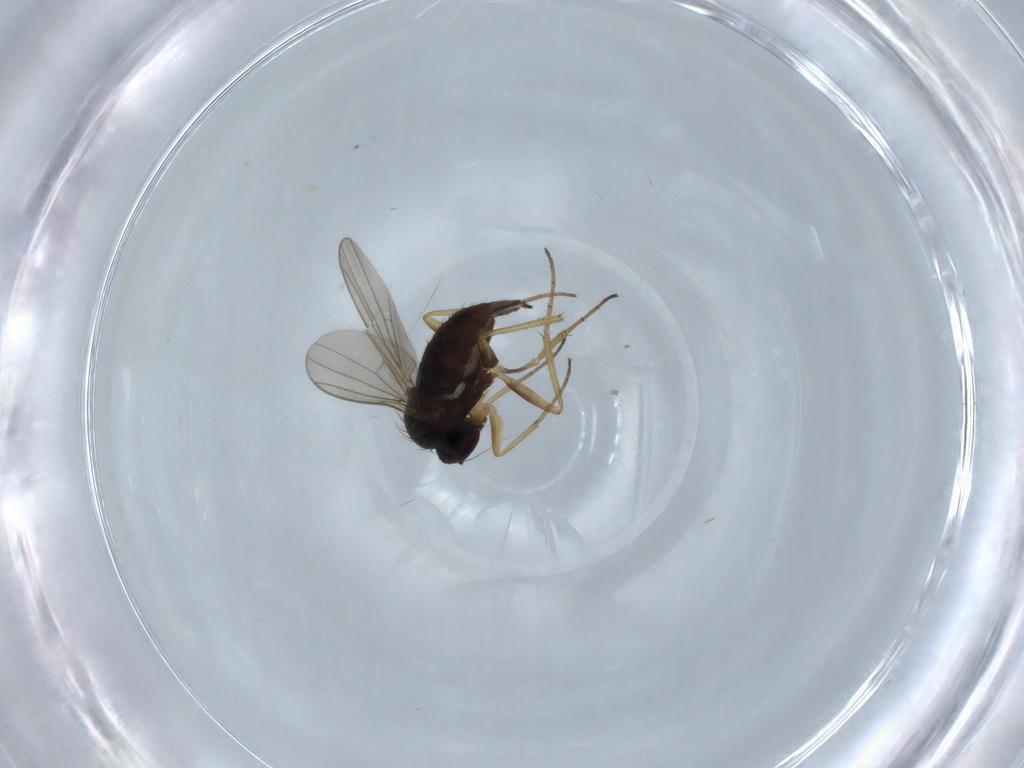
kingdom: Animalia
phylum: Arthropoda
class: Insecta
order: Diptera
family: Dolichopodidae
